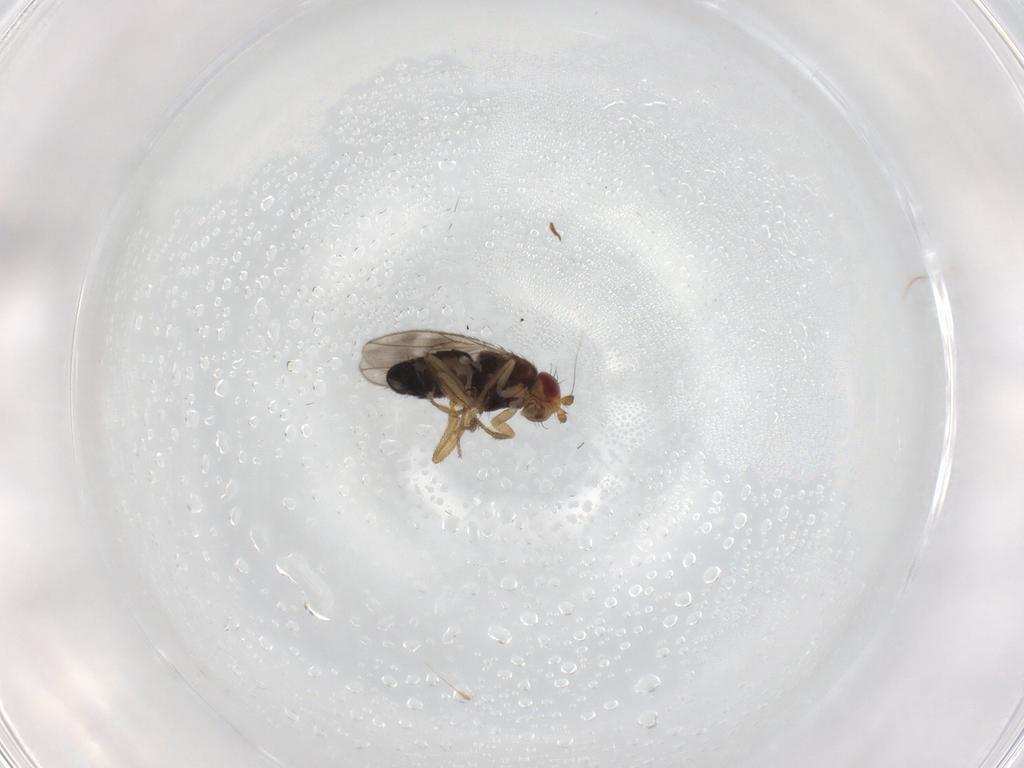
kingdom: Animalia
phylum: Arthropoda
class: Insecta
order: Diptera
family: Sphaeroceridae
